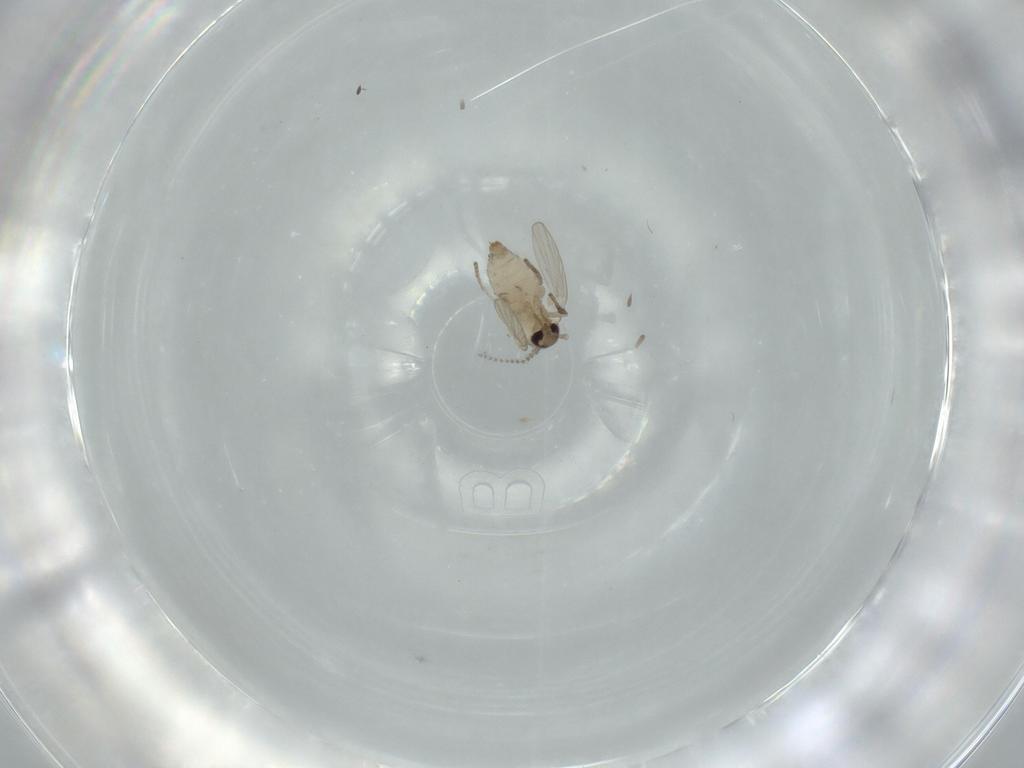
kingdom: Animalia
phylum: Arthropoda
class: Insecta
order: Diptera
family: Psychodidae
